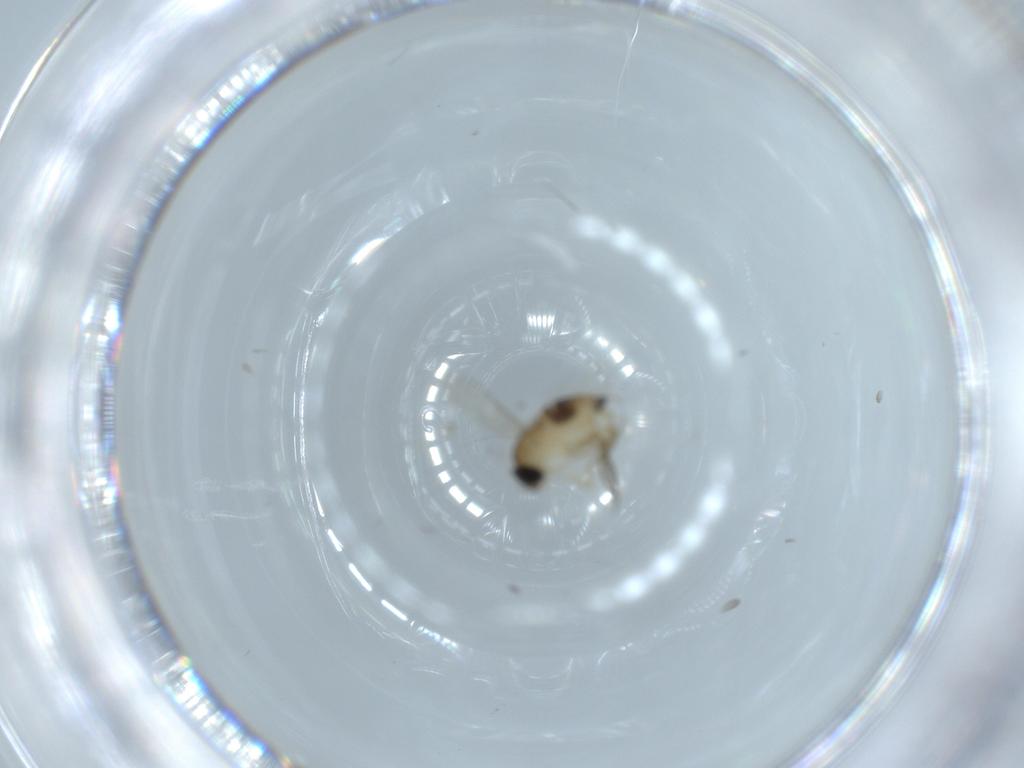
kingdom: Animalia
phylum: Arthropoda
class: Insecta
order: Diptera
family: Phoridae
